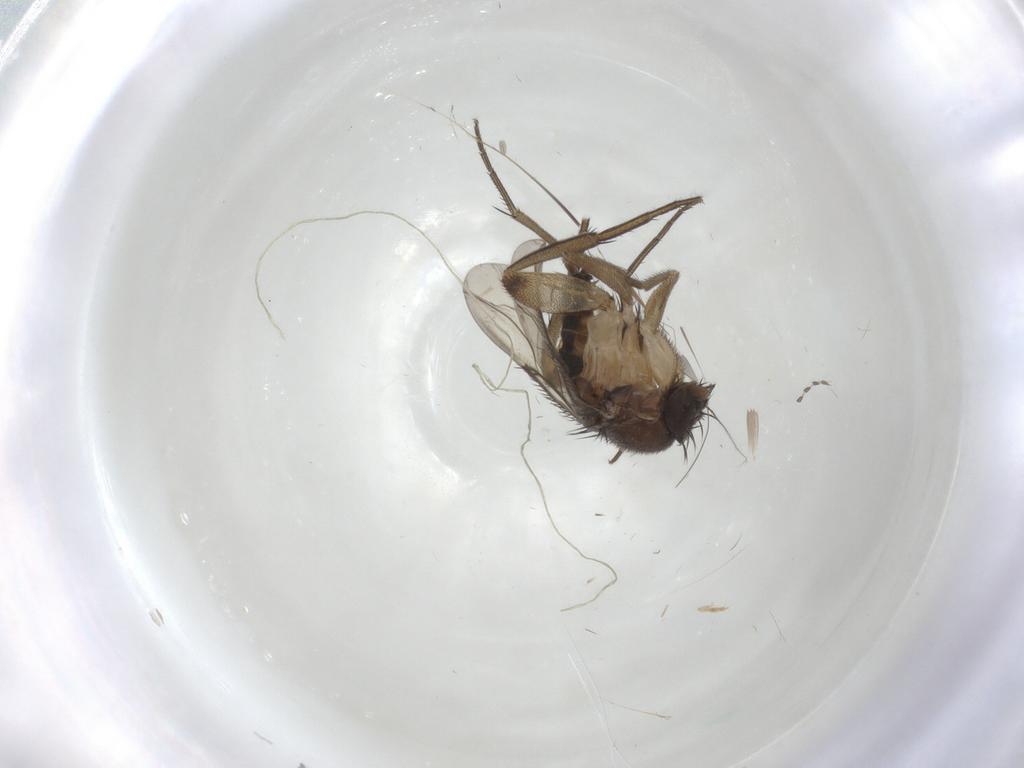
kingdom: Animalia
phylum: Arthropoda
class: Insecta
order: Diptera
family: Phoridae
